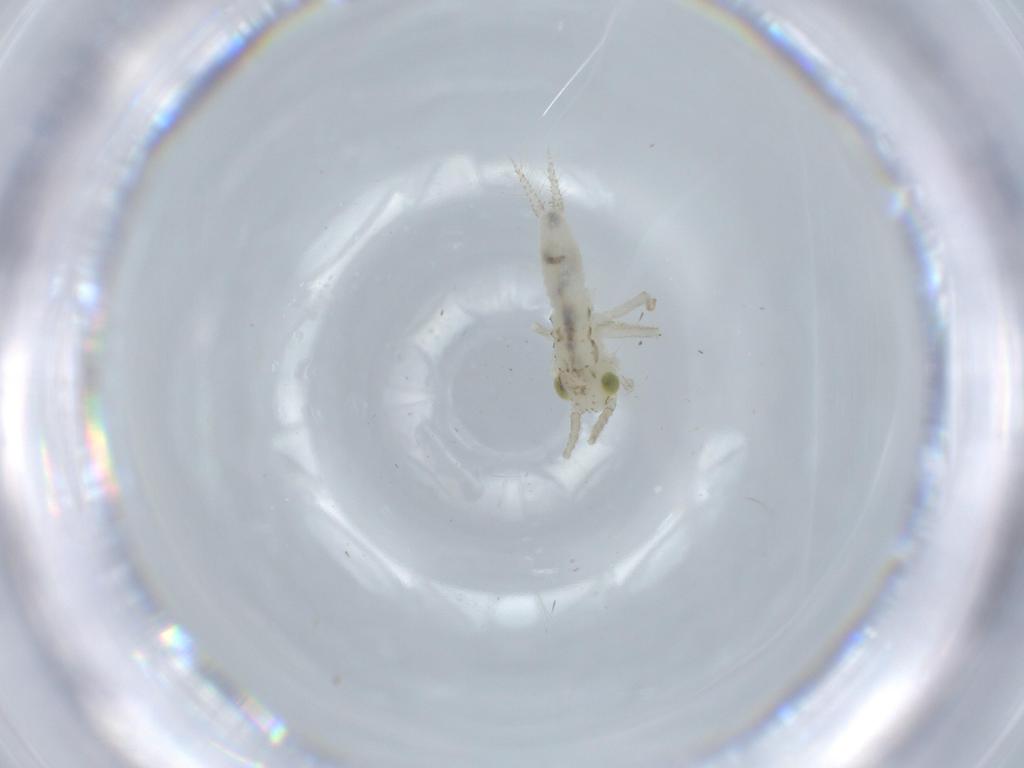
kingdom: Animalia
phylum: Arthropoda
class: Insecta
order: Orthoptera
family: Trigonidiidae
